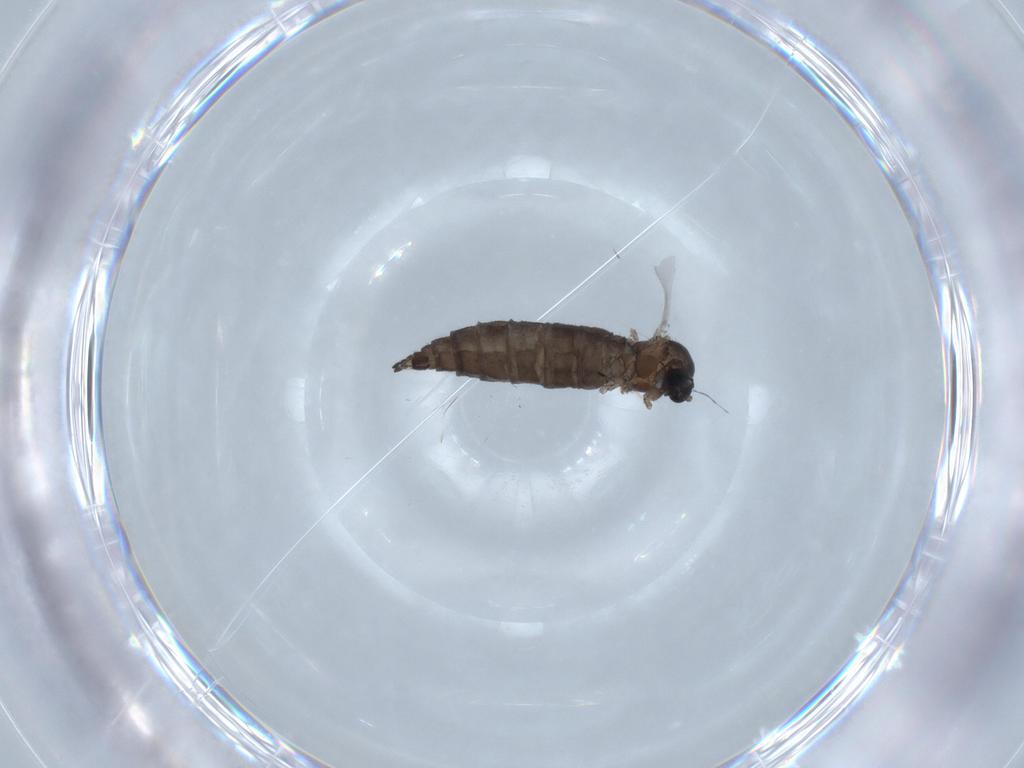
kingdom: Animalia
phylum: Arthropoda
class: Insecta
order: Diptera
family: Sciaridae
